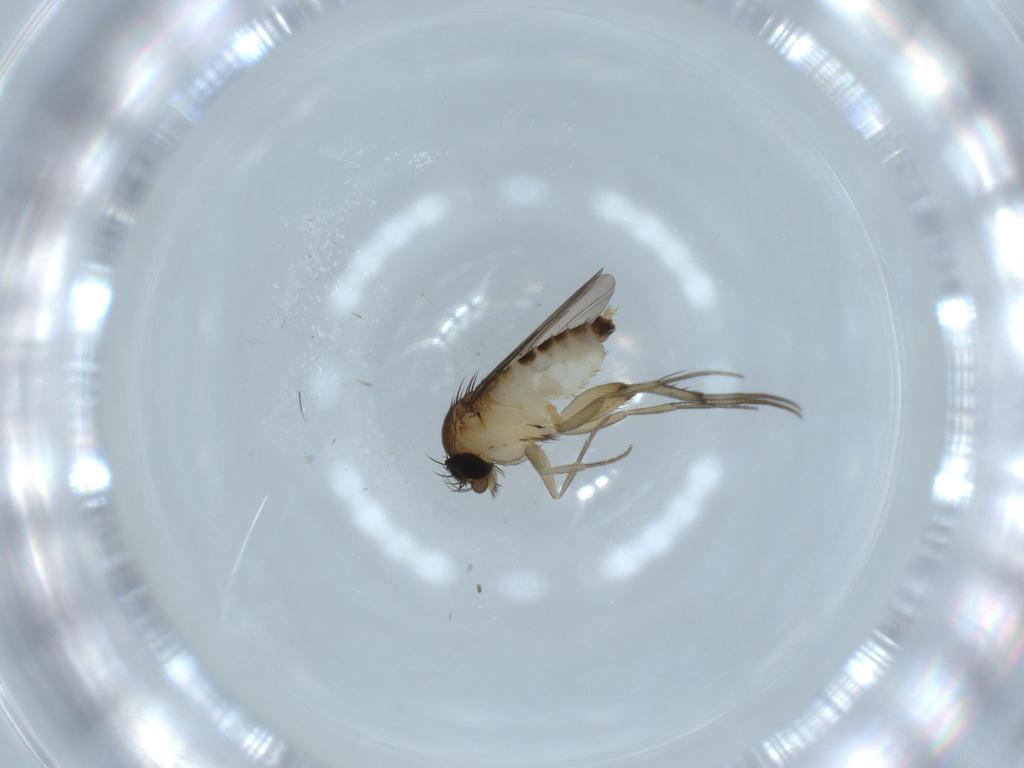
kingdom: Animalia
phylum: Arthropoda
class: Insecta
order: Diptera
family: Phoridae
